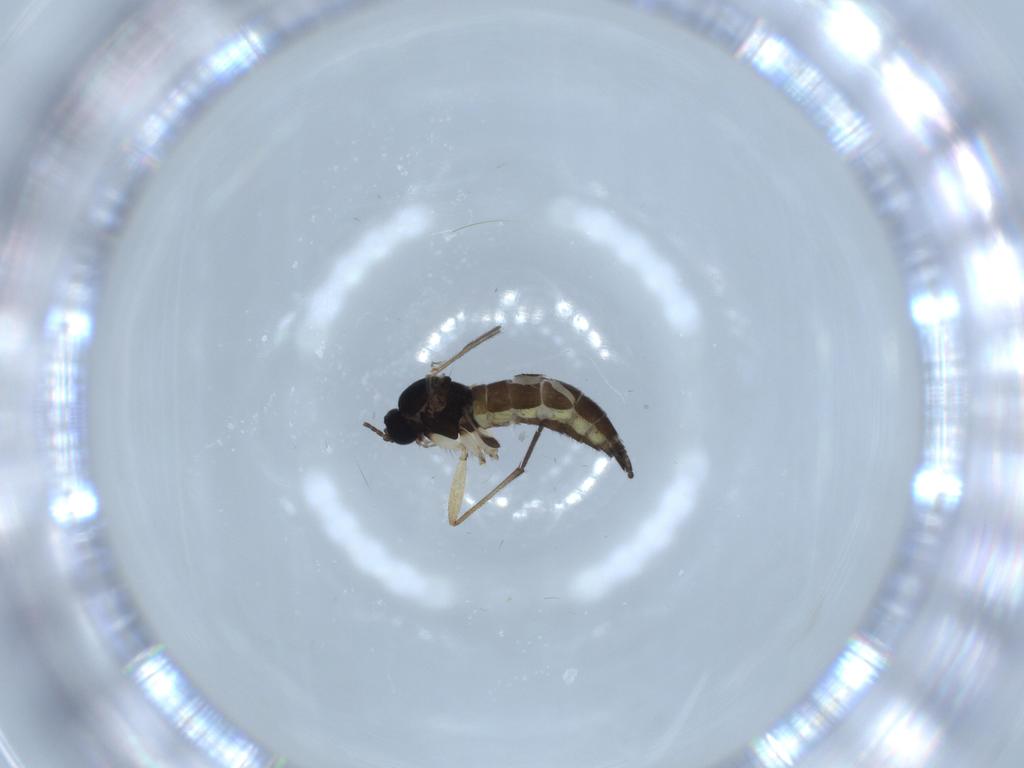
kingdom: Animalia
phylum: Arthropoda
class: Insecta
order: Diptera
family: Sciaridae
